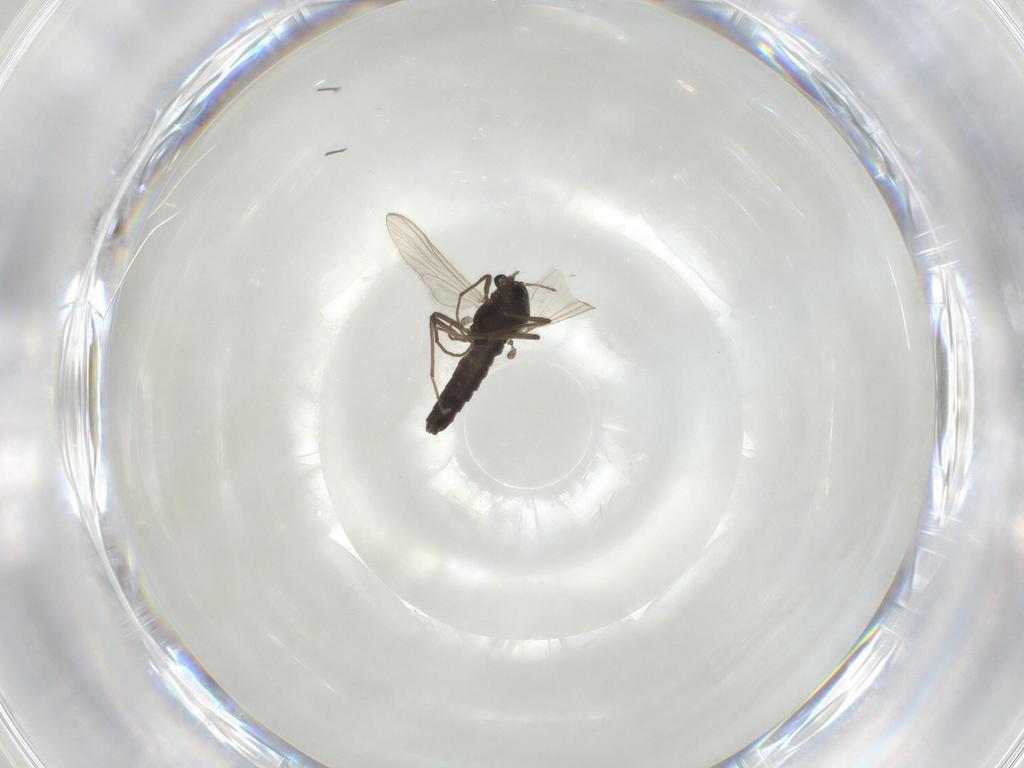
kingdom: Animalia
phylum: Arthropoda
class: Insecta
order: Diptera
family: Chironomidae
